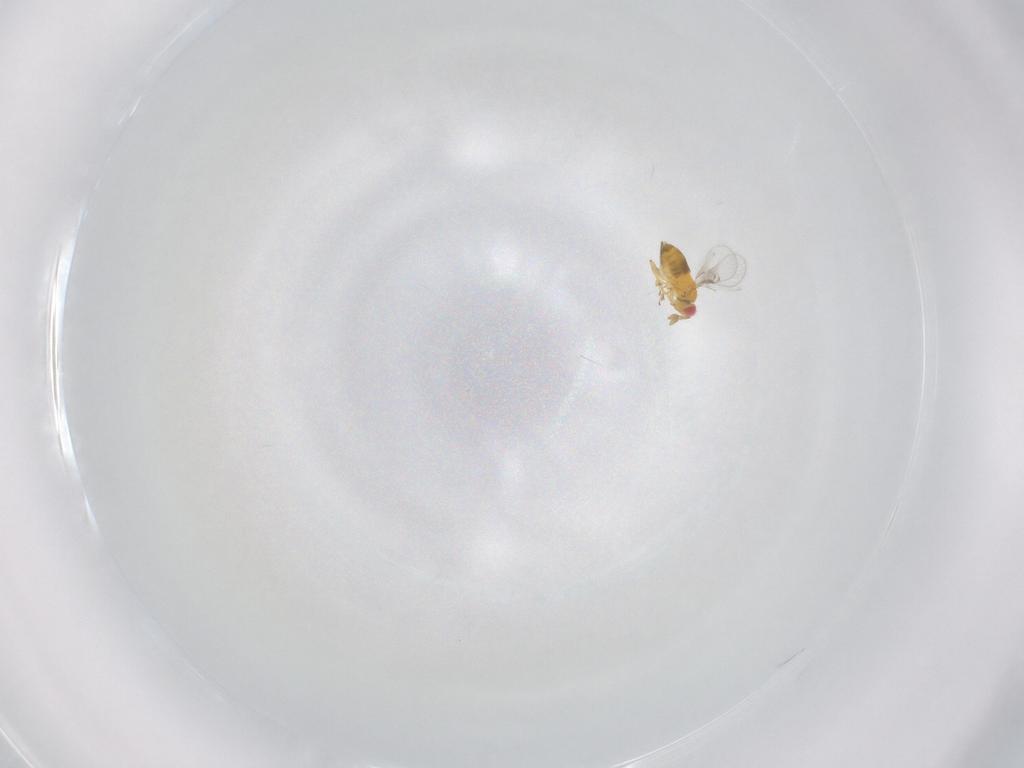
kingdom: Animalia
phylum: Arthropoda
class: Insecta
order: Hymenoptera
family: Trichogrammatidae
